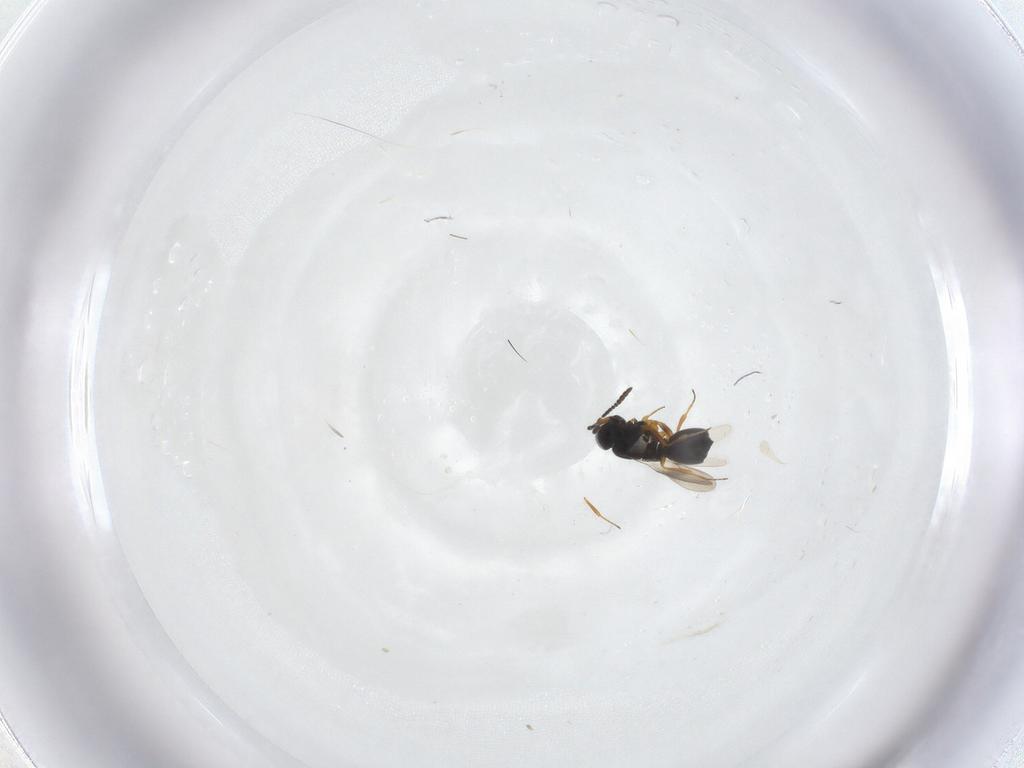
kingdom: Animalia
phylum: Arthropoda
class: Insecta
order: Hymenoptera
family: Scelionidae
